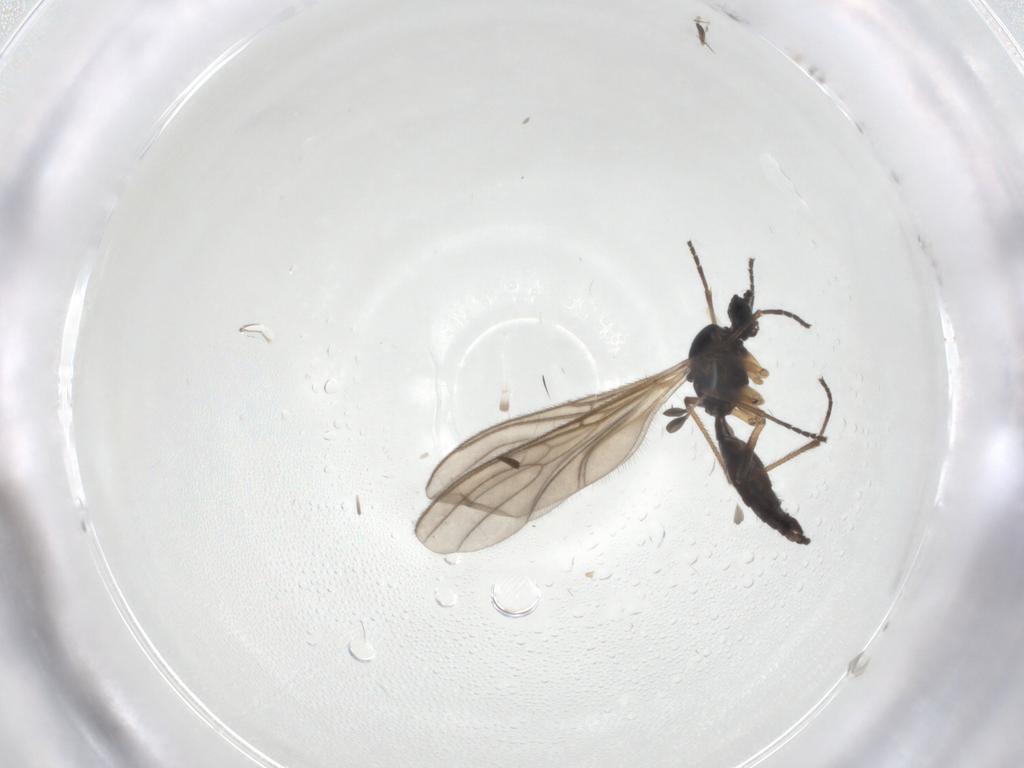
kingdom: Animalia
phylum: Arthropoda
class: Insecta
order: Diptera
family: Sciaridae
